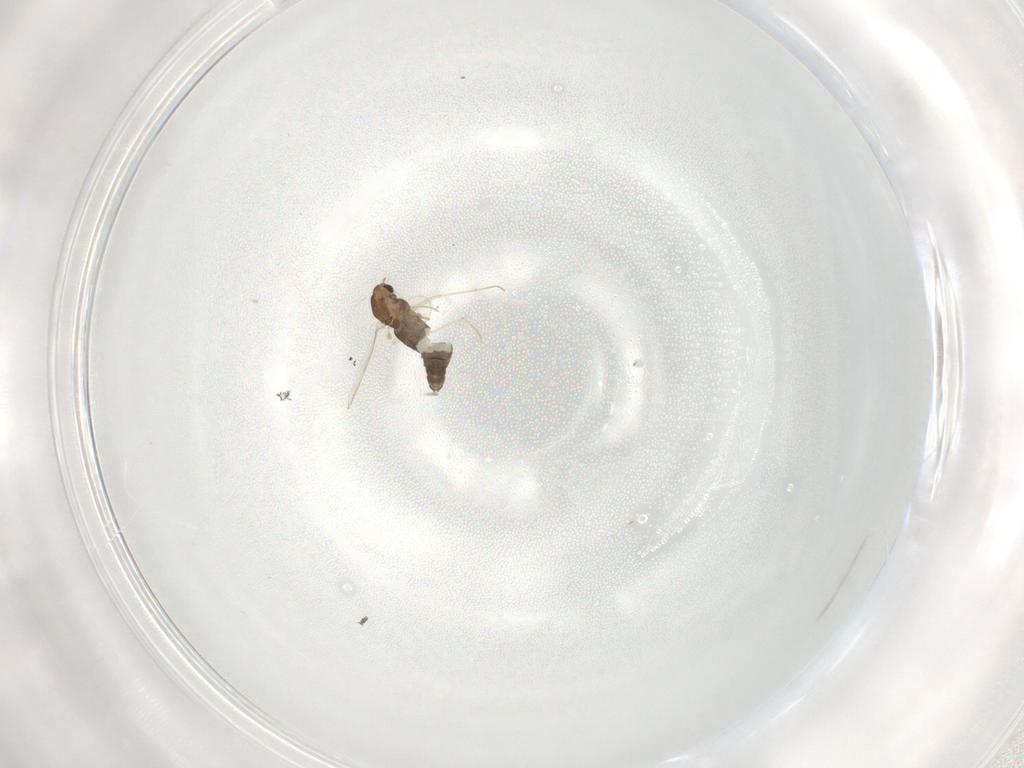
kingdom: Animalia
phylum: Arthropoda
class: Insecta
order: Diptera
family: Chironomidae
